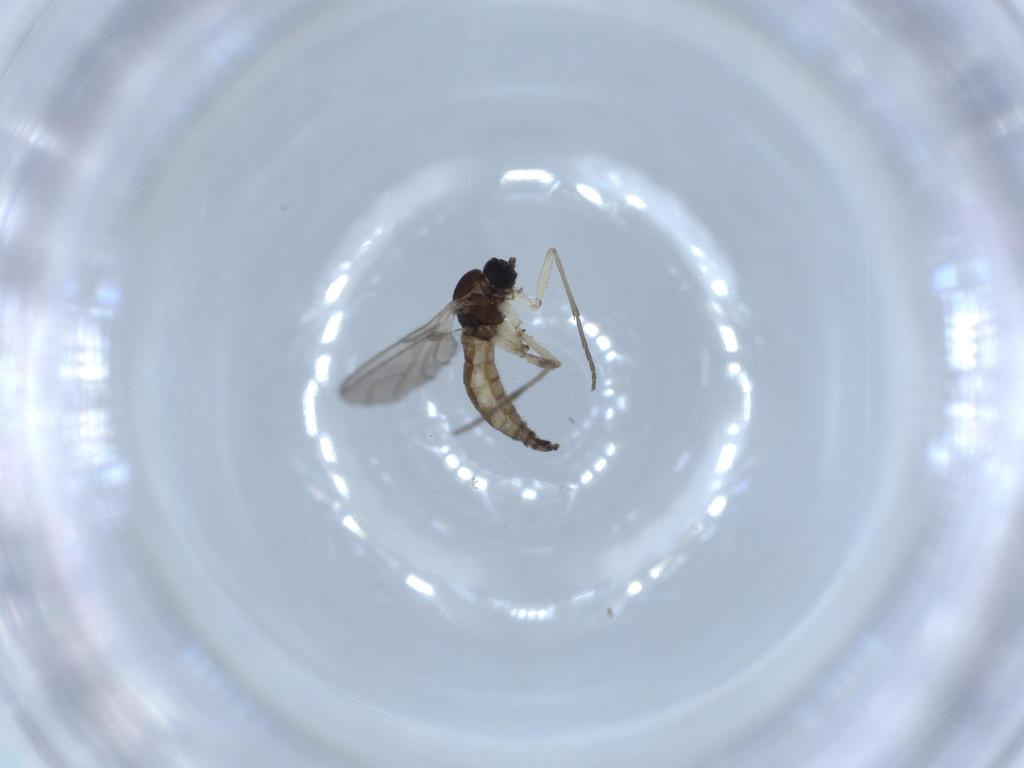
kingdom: Animalia
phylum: Arthropoda
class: Insecta
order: Diptera
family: Sciaridae
